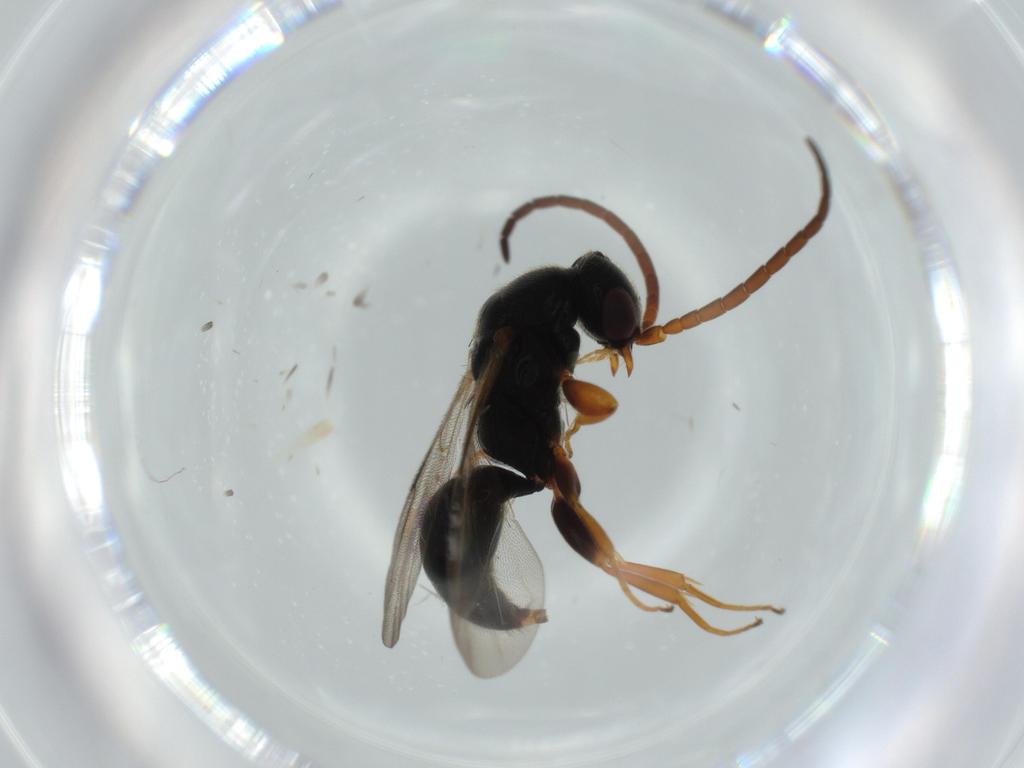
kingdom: Animalia
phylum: Arthropoda
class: Insecta
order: Hymenoptera
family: Bethylidae
